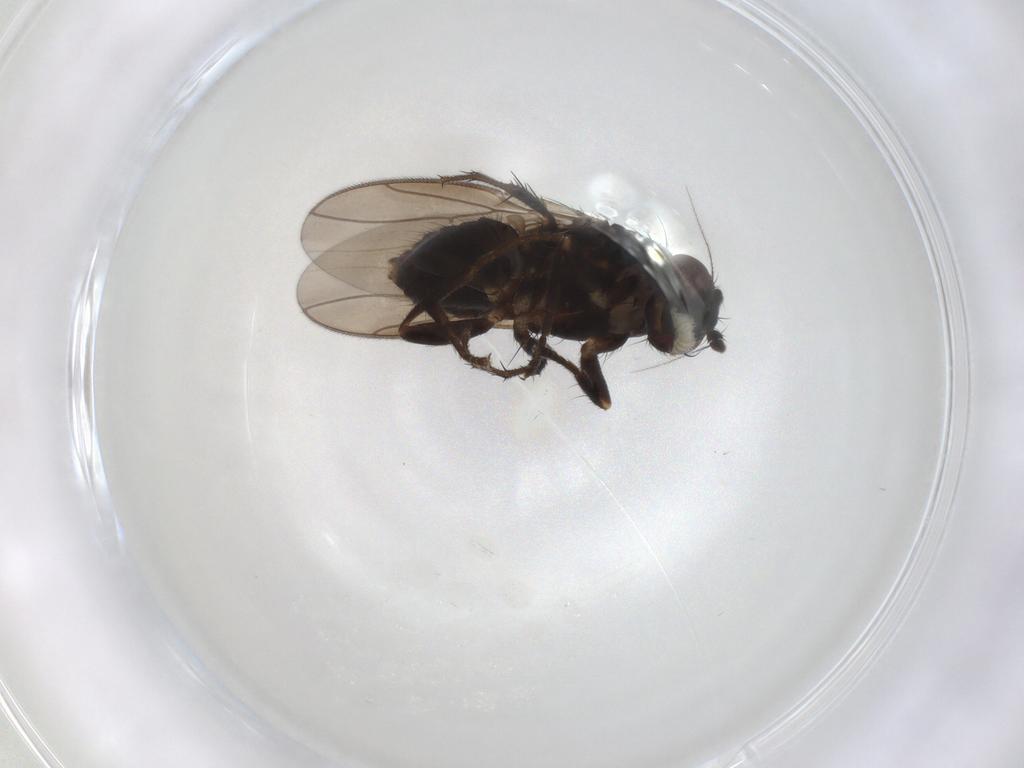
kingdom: Animalia
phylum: Arthropoda
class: Insecta
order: Diptera
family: Sphaeroceridae
